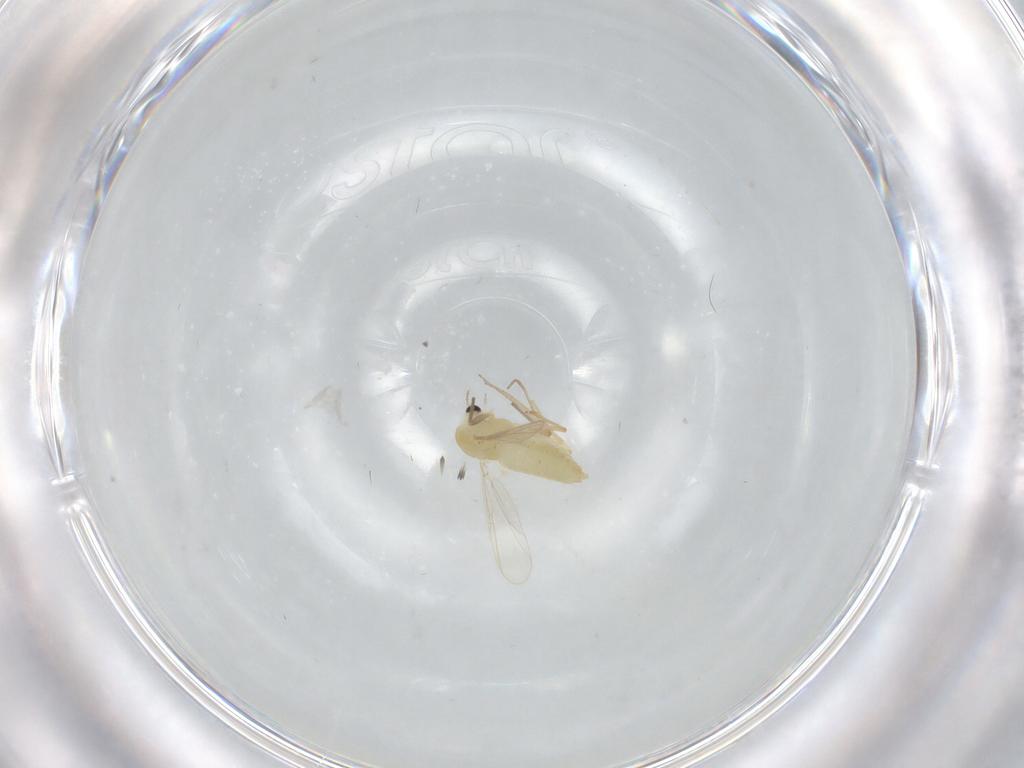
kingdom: Animalia
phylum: Arthropoda
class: Insecta
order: Diptera
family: Chironomidae
